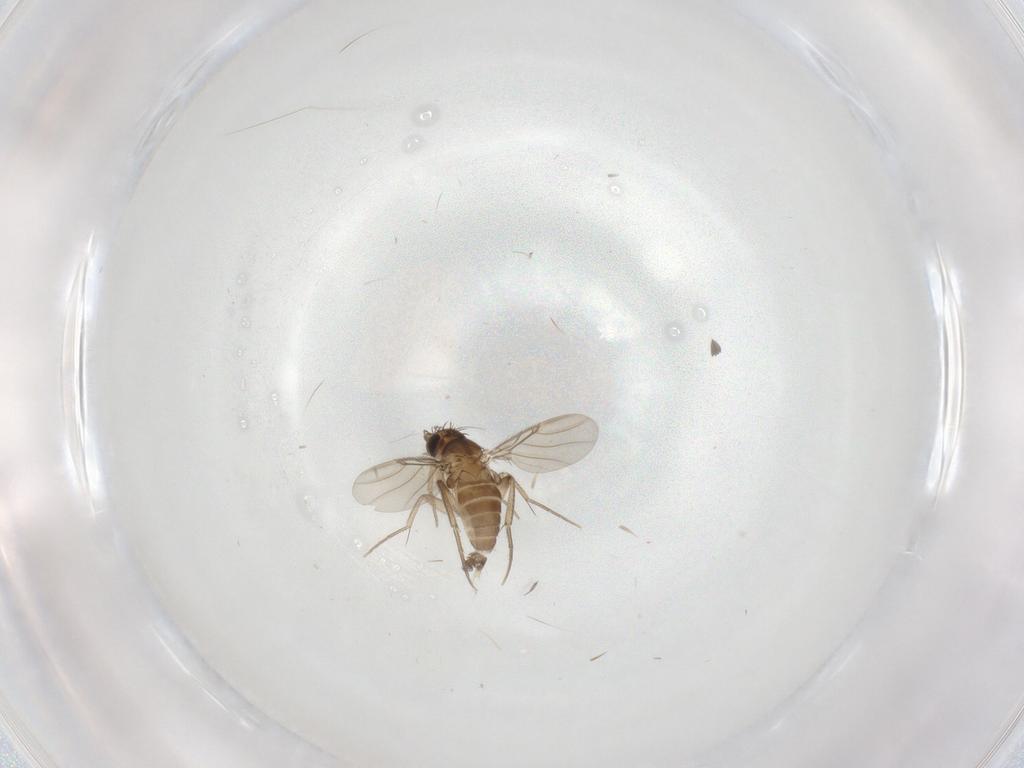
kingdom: Animalia
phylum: Arthropoda
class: Insecta
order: Diptera
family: Phoridae
